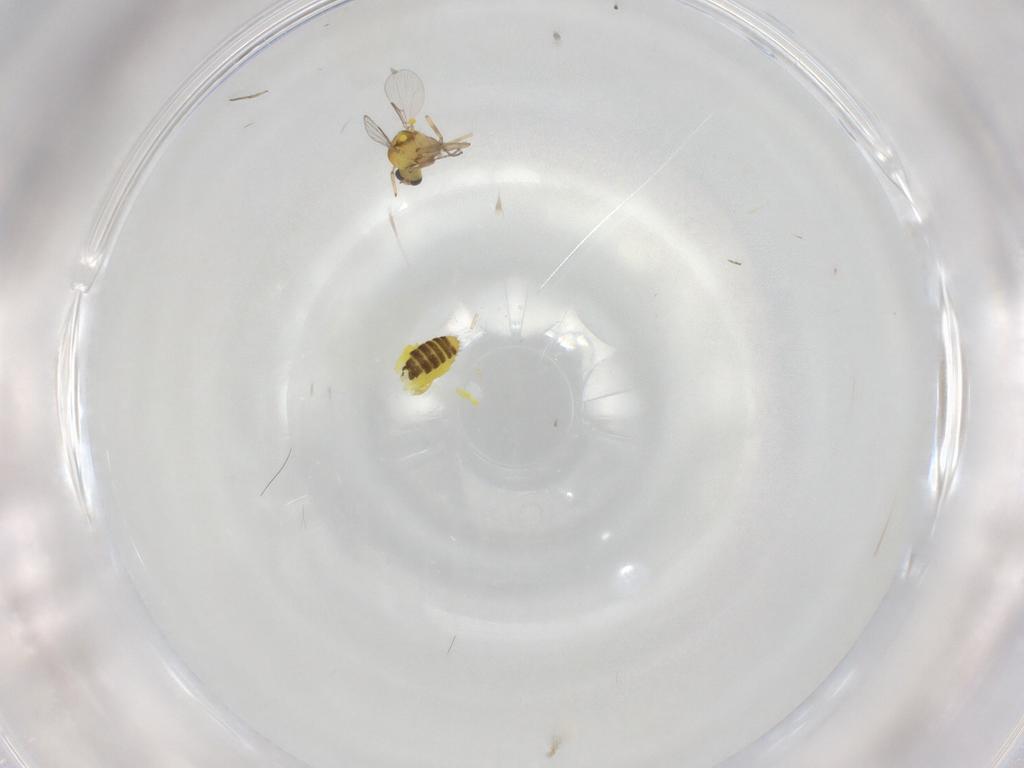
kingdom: Animalia
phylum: Arthropoda
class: Insecta
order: Diptera
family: Ceratopogonidae
